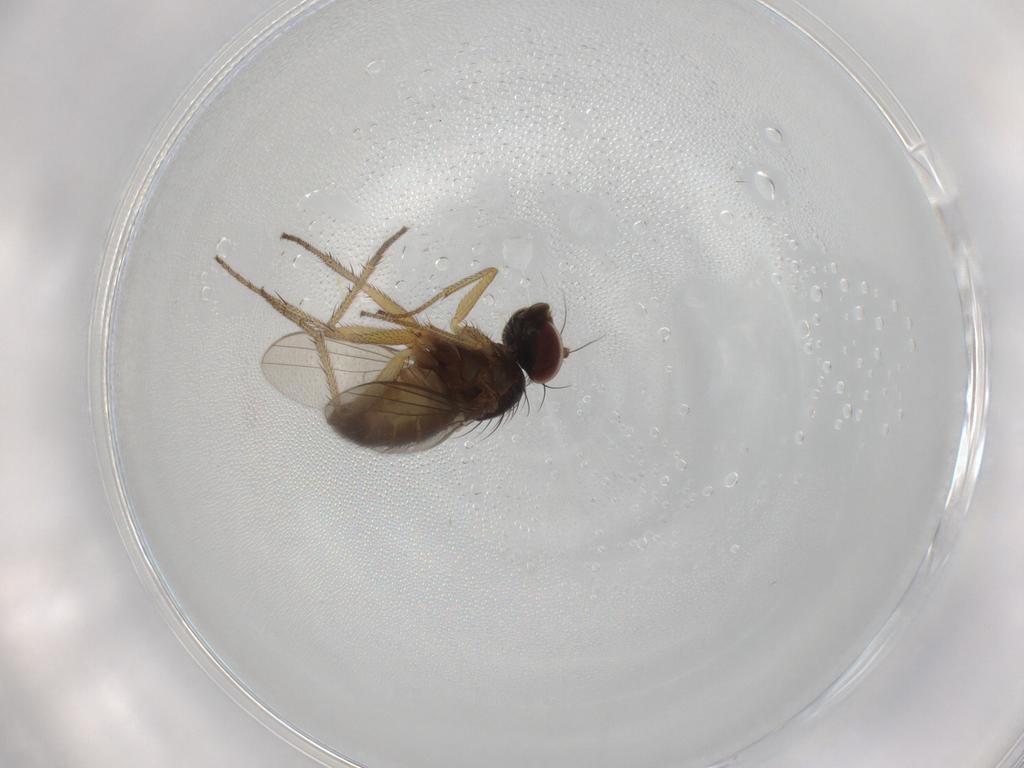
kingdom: Animalia
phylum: Arthropoda
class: Insecta
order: Diptera
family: Dolichopodidae
